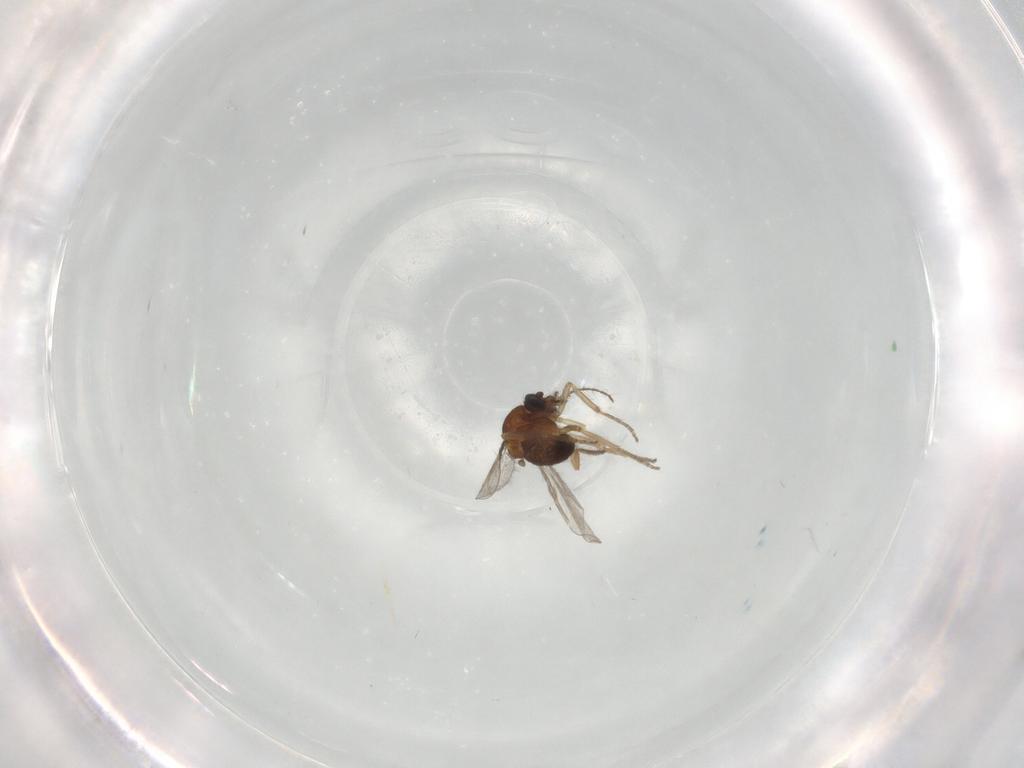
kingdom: Animalia
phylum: Arthropoda
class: Insecta
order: Diptera
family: Ceratopogonidae
